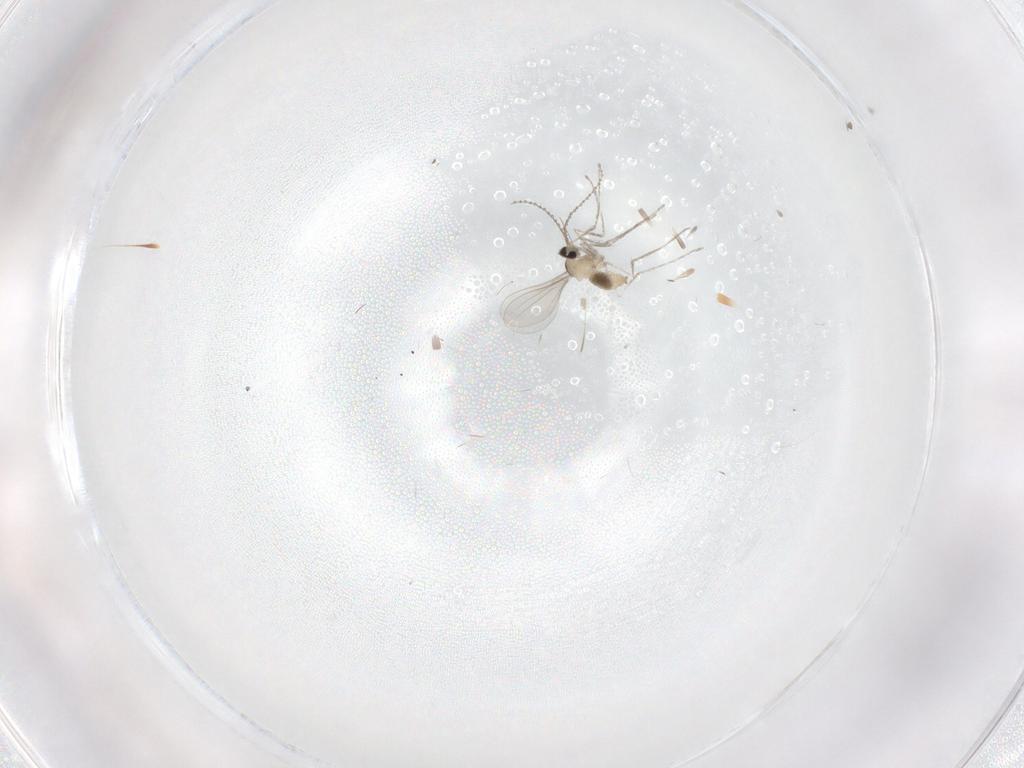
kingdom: Animalia
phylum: Arthropoda
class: Insecta
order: Diptera
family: Cecidomyiidae
